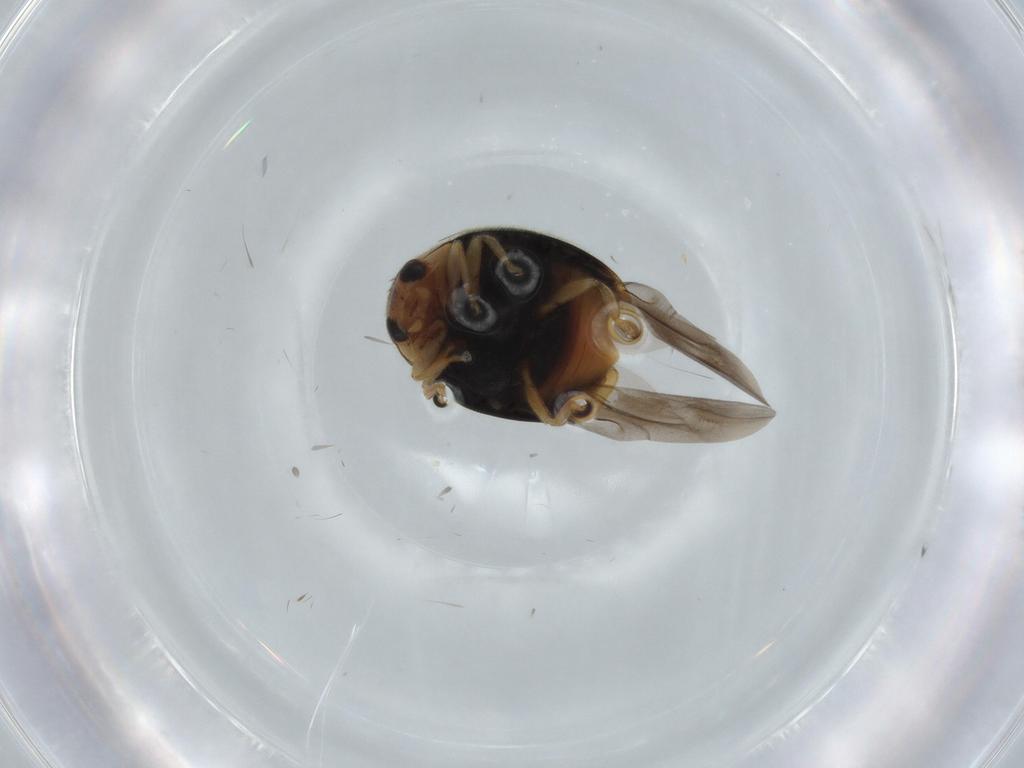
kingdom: Animalia
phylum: Arthropoda
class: Insecta
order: Coleoptera
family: Coccinellidae
